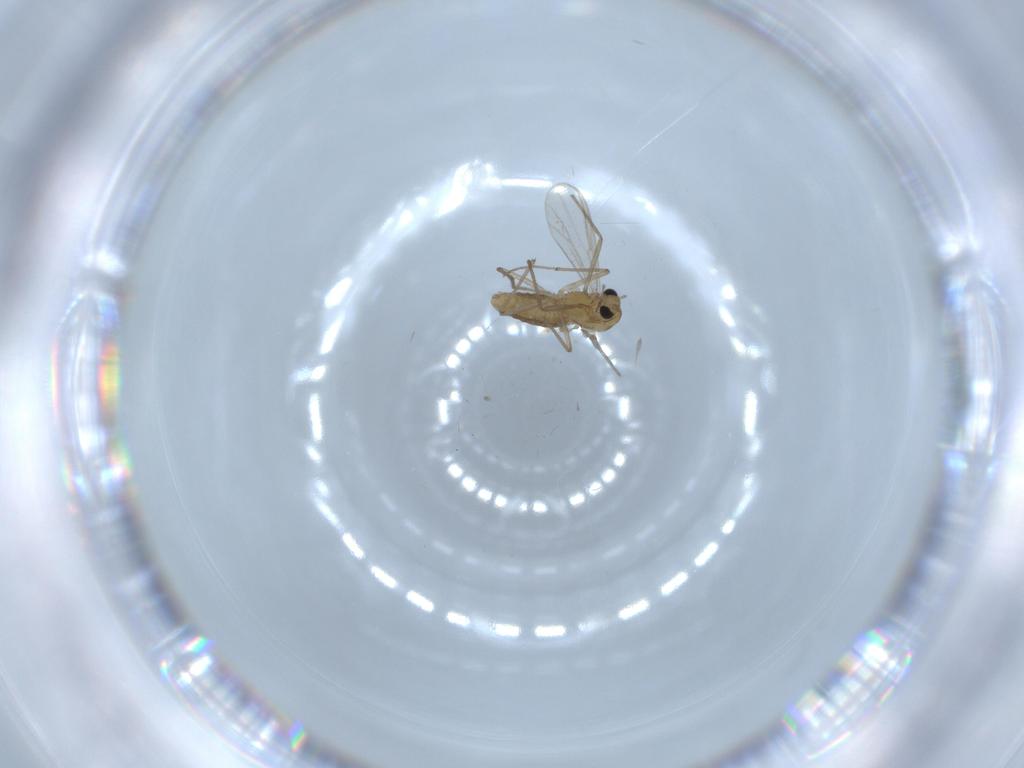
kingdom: Animalia
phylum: Arthropoda
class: Insecta
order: Diptera
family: Chironomidae
